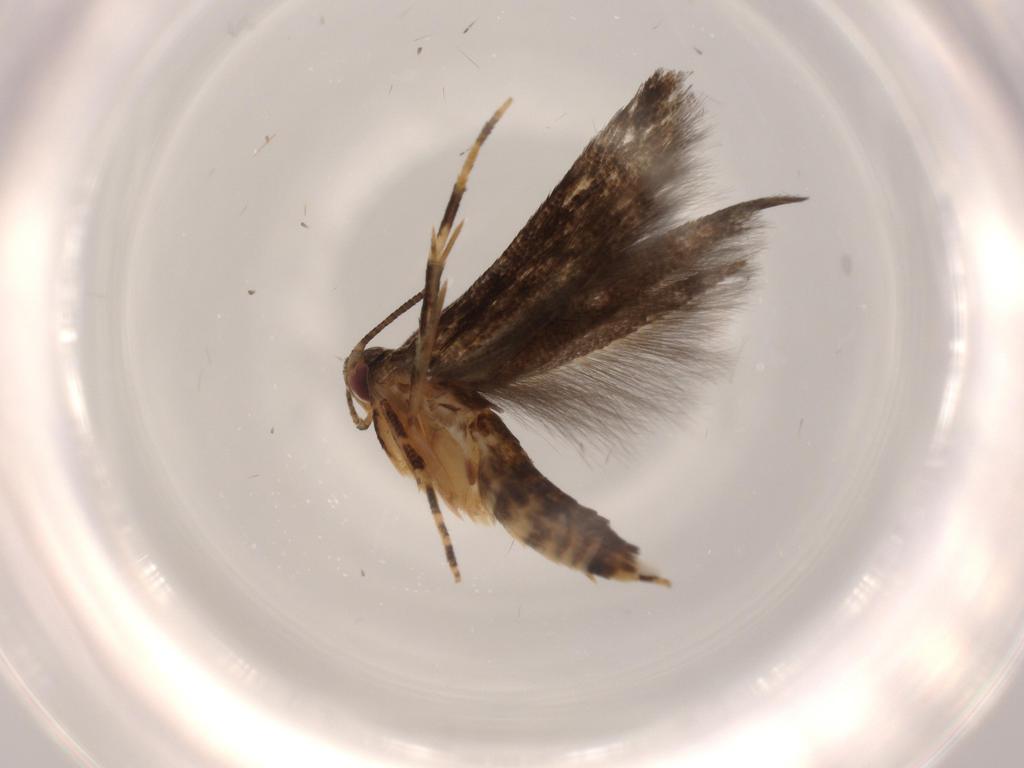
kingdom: Animalia
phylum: Arthropoda
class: Insecta
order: Lepidoptera
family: Momphidae
